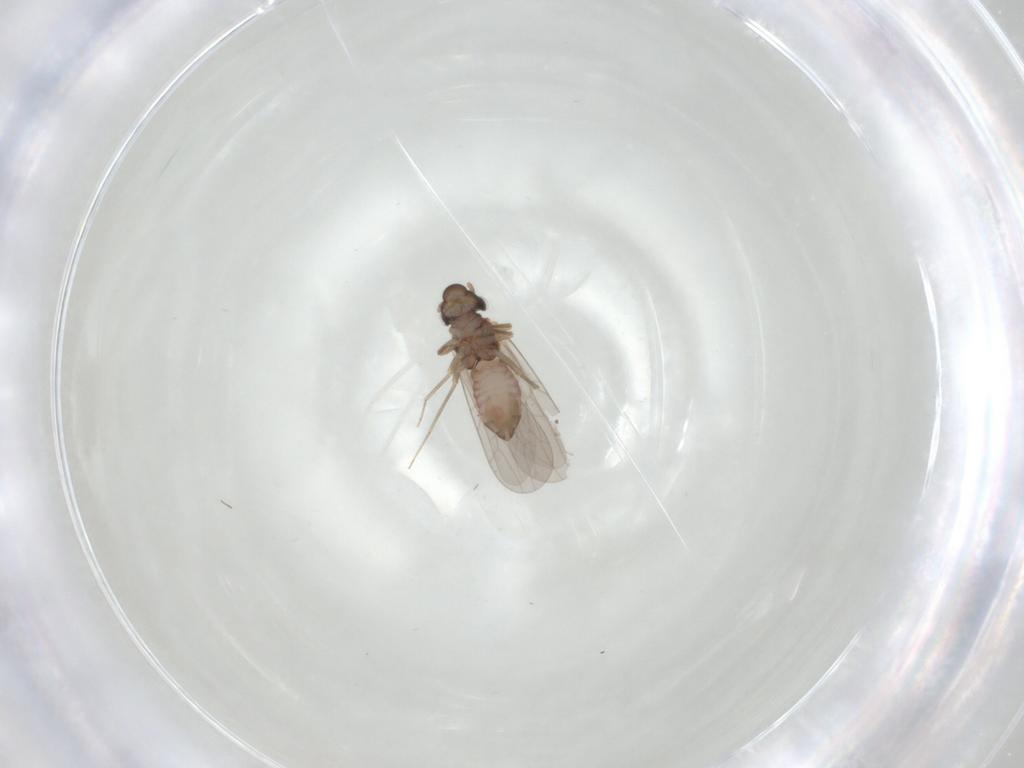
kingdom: Animalia
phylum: Arthropoda
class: Insecta
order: Psocodea
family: Lepidopsocidae
